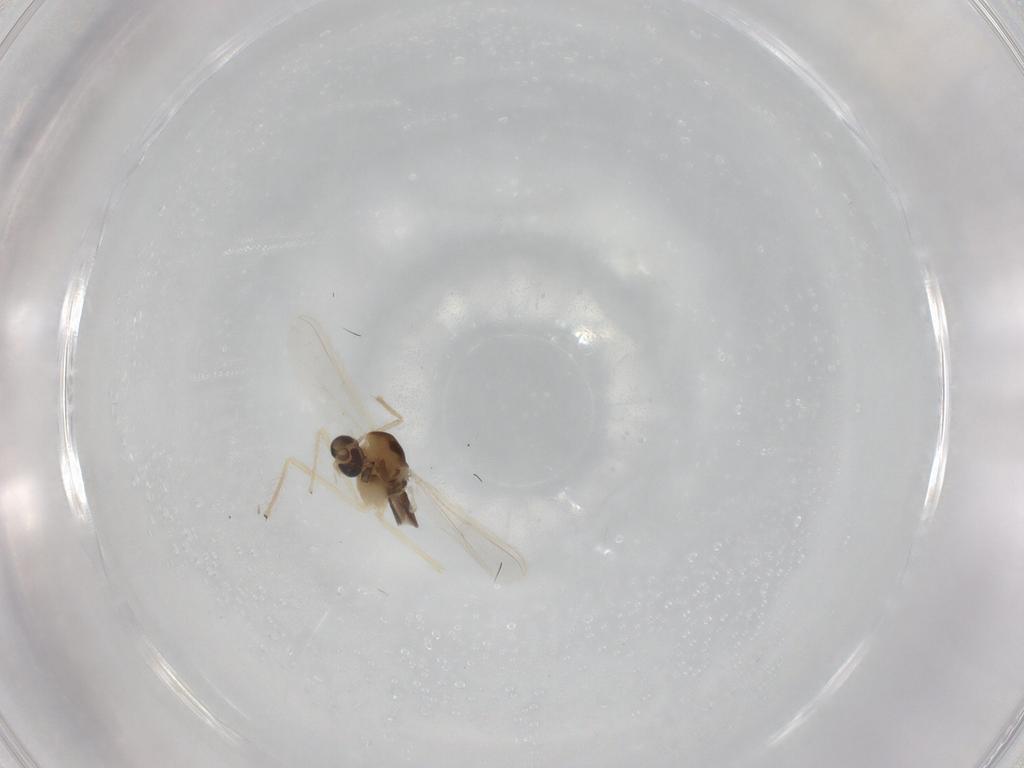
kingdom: Animalia
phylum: Arthropoda
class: Insecta
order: Diptera
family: Chironomidae
